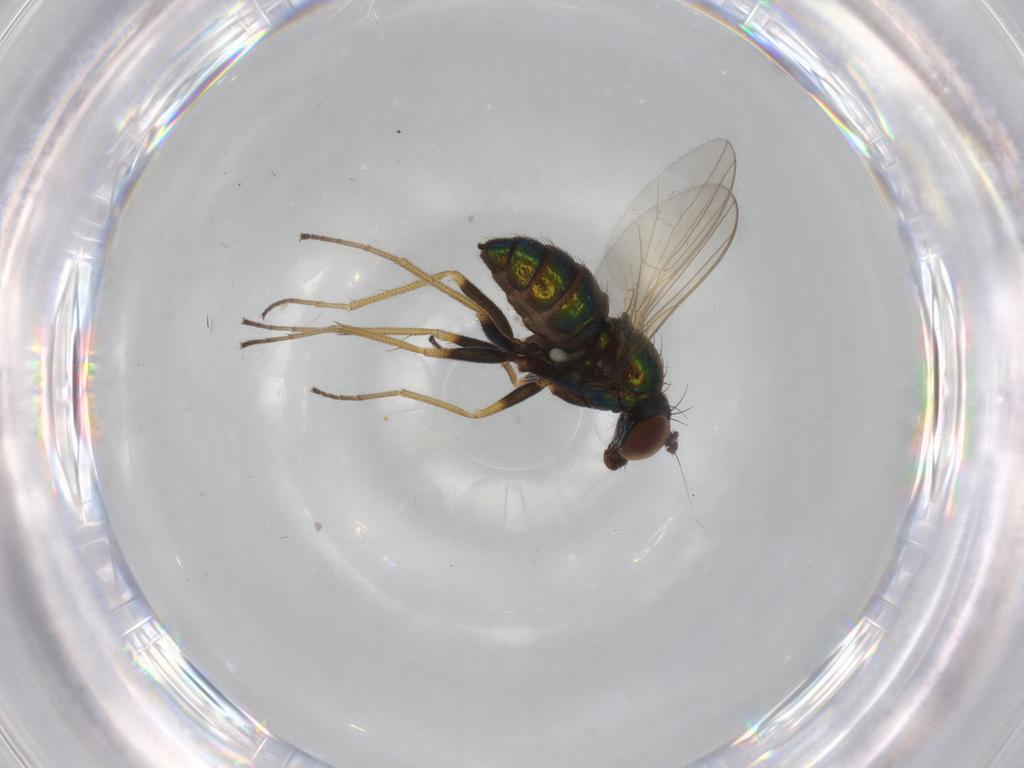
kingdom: Animalia
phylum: Arthropoda
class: Insecta
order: Diptera
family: Dolichopodidae
